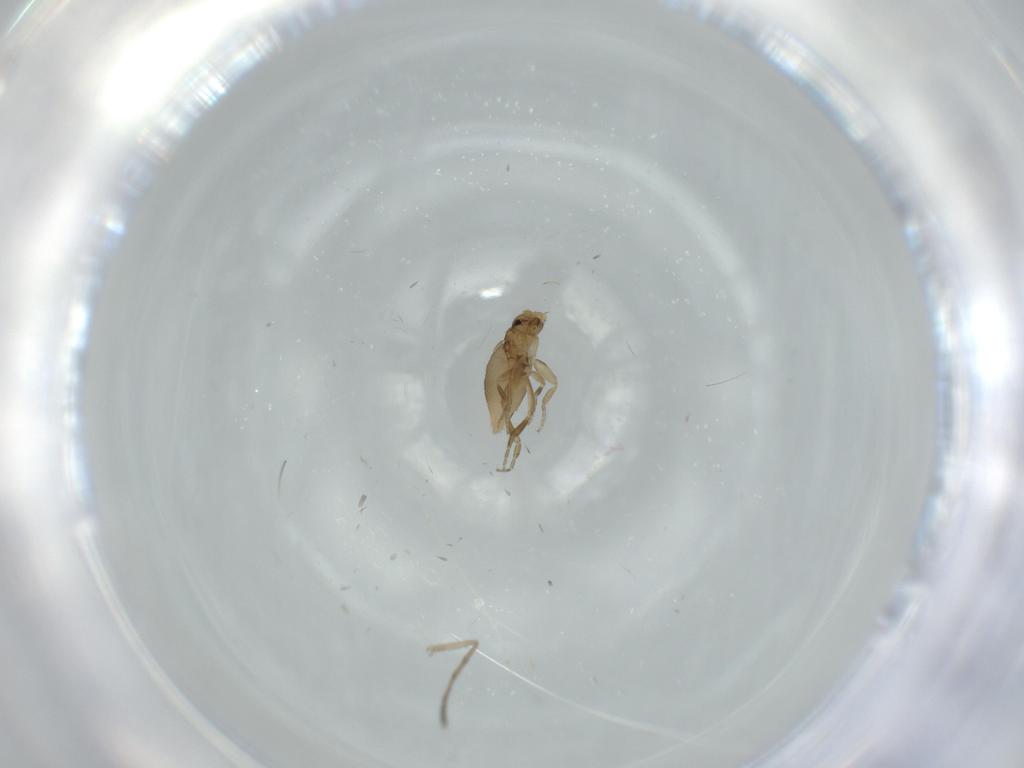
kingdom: Animalia
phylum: Arthropoda
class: Insecta
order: Diptera
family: Phoridae
